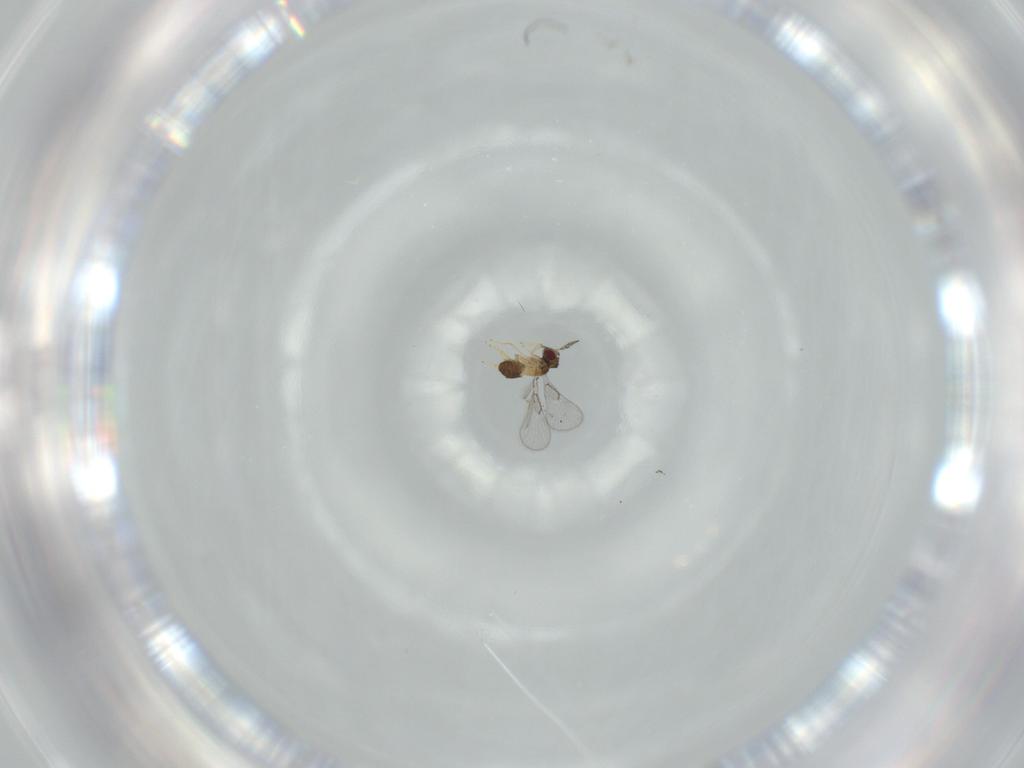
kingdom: Animalia
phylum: Arthropoda
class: Insecta
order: Hymenoptera
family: Trichogrammatidae
